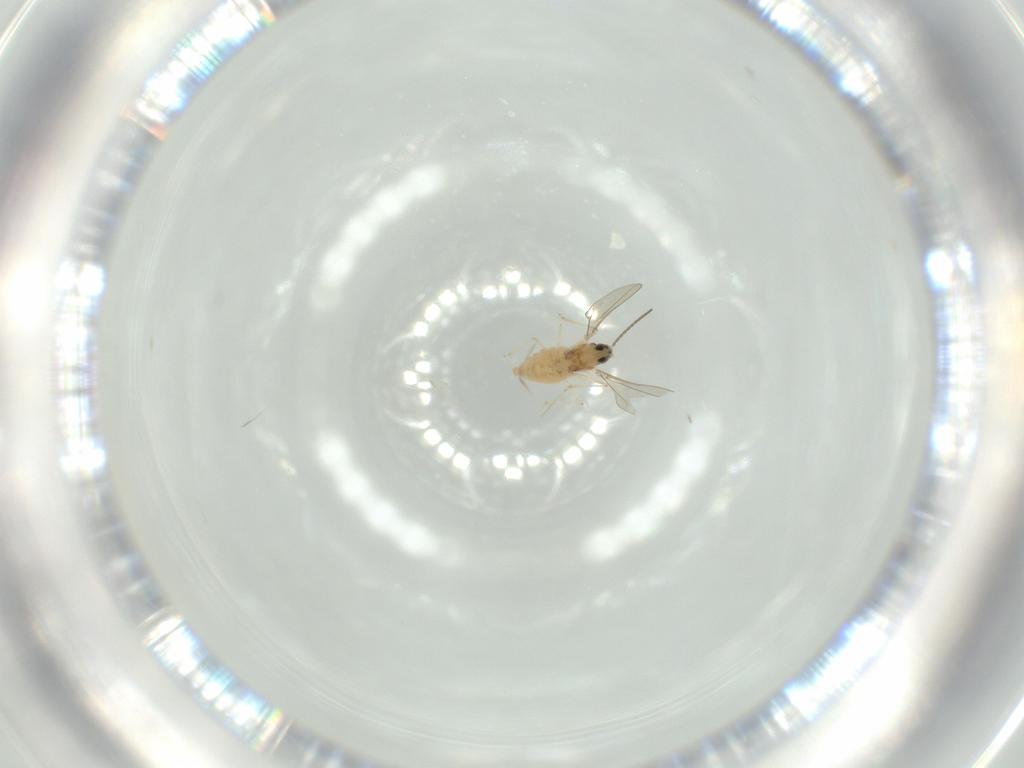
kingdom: Animalia
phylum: Arthropoda
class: Insecta
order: Diptera
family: Cecidomyiidae
